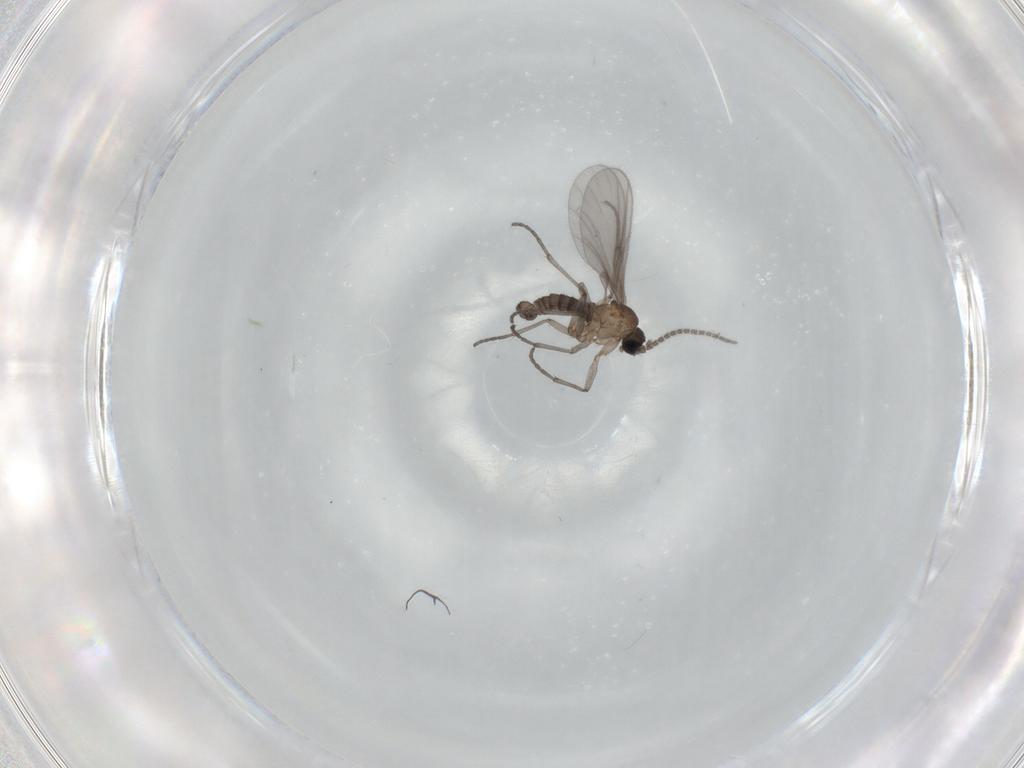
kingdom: Animalia
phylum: Arthropoda
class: Insecta
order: Diptera
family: Sciaridae
